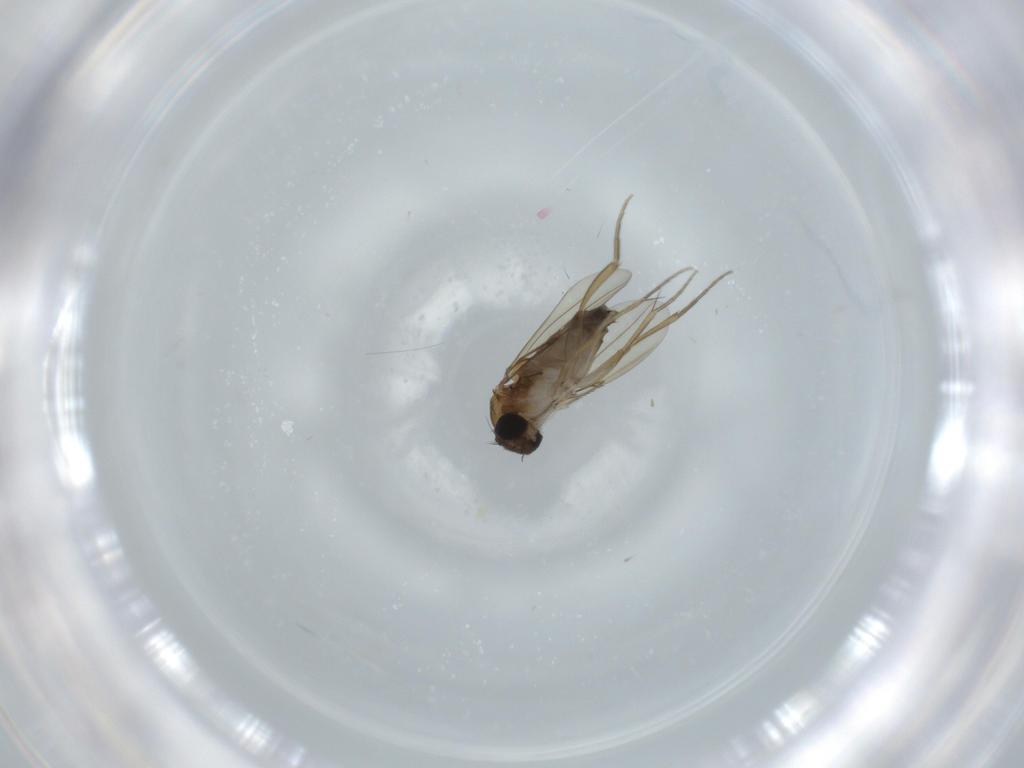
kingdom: Animalia
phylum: Arthropoda
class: Insecta
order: Diptera
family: Phoridae
